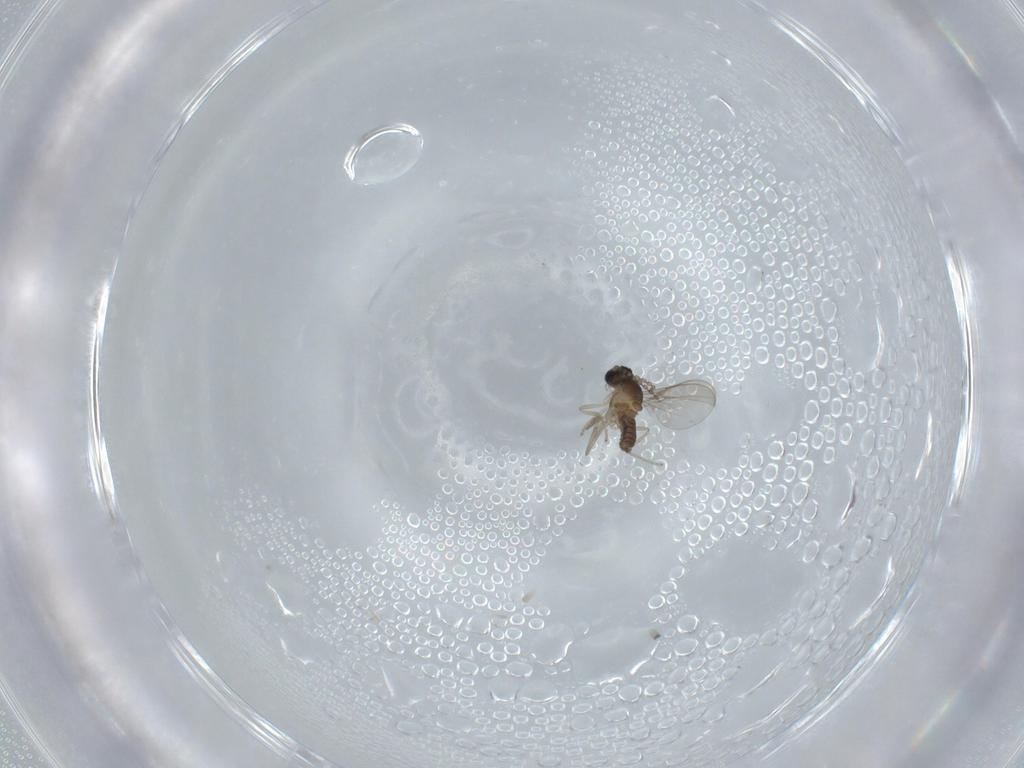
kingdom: Animalia
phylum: Arthropoda
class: Insecta
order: Diptera
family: Cecidomyiidae
